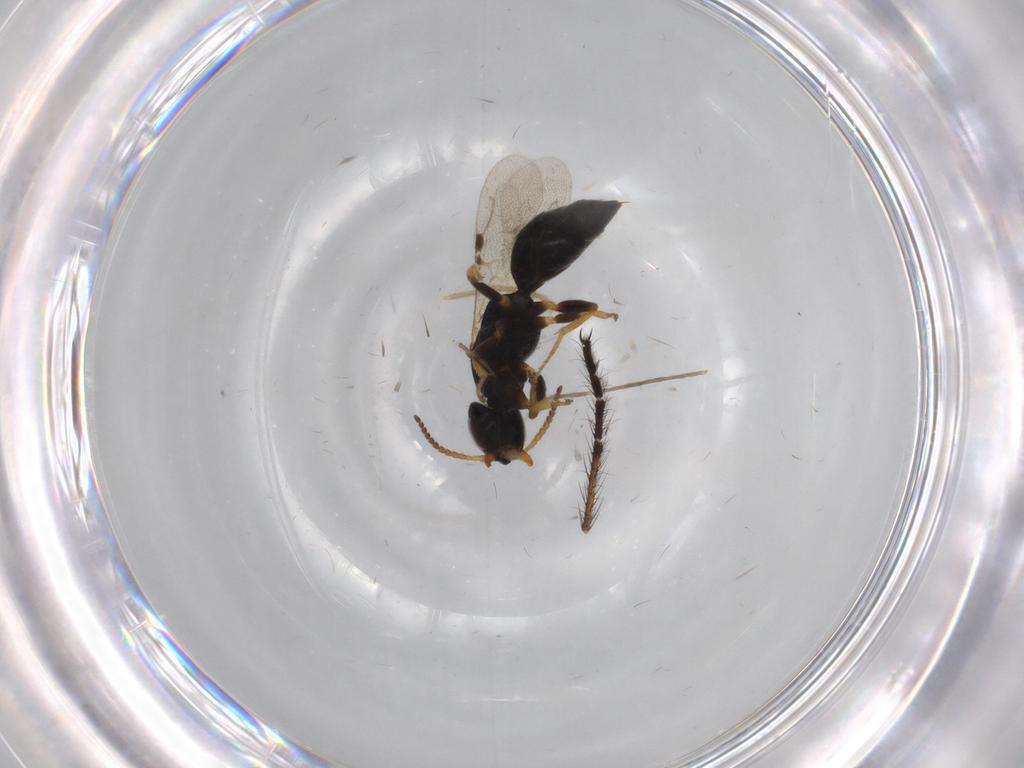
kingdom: Animalia
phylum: Arthropoda
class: Insecta
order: Hymenoptera
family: Bethylidae
